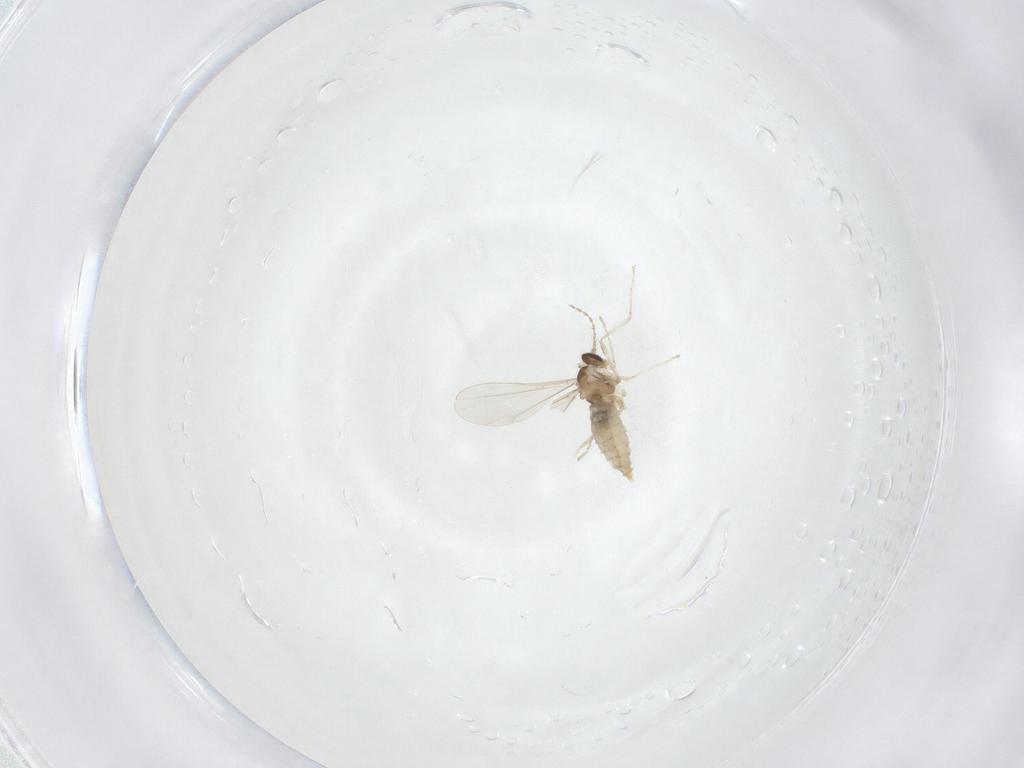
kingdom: Animalia
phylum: Arthropoda
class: Insecta
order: Diptera
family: Cecidomyiidae
